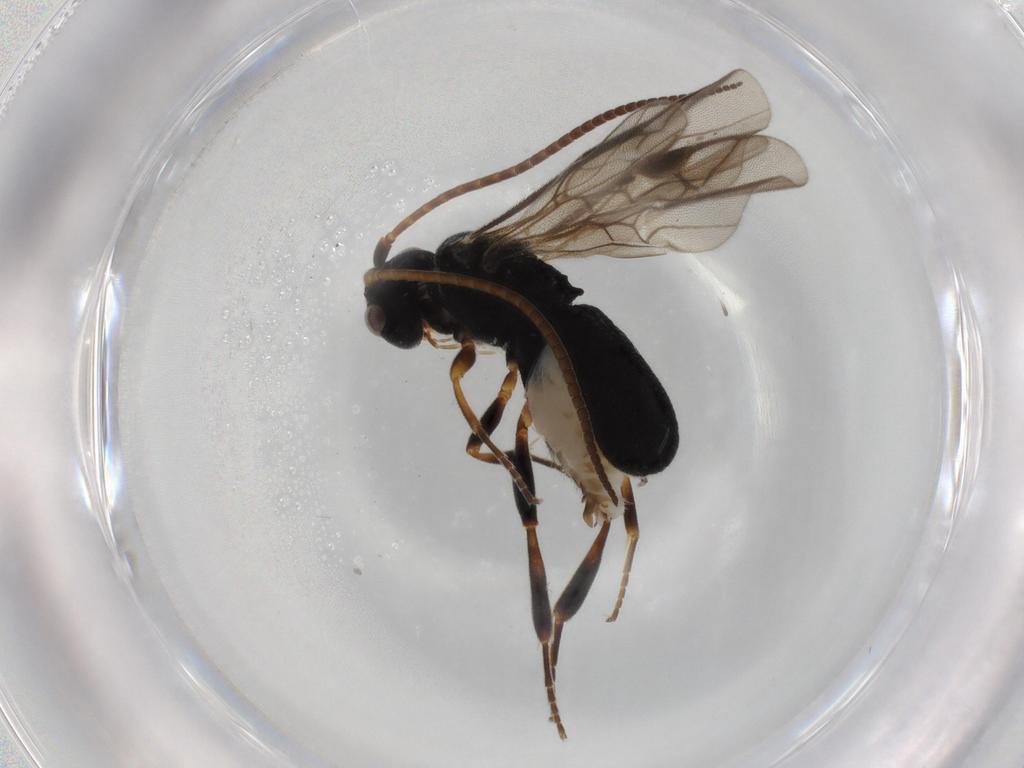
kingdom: Animalia
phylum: Arthropoda
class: Insecta
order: Hymenoptera
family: Braconidae
